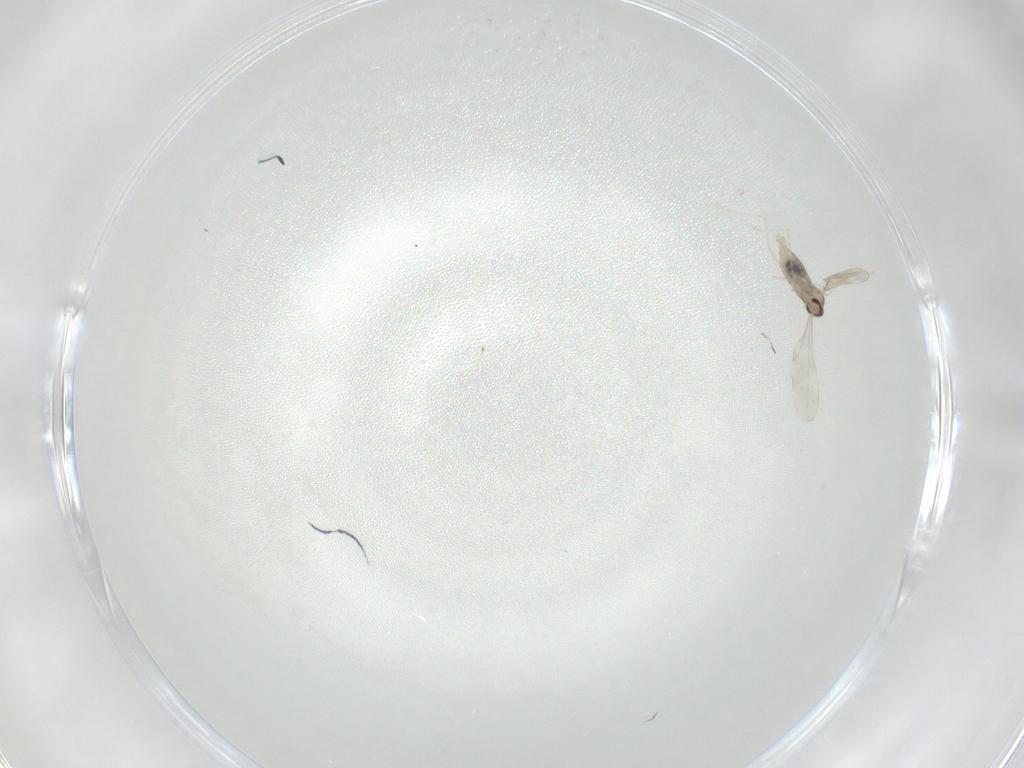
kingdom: Animalia
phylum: Arthropoda
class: Insecta
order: Diptera
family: Cecidomyiidae
